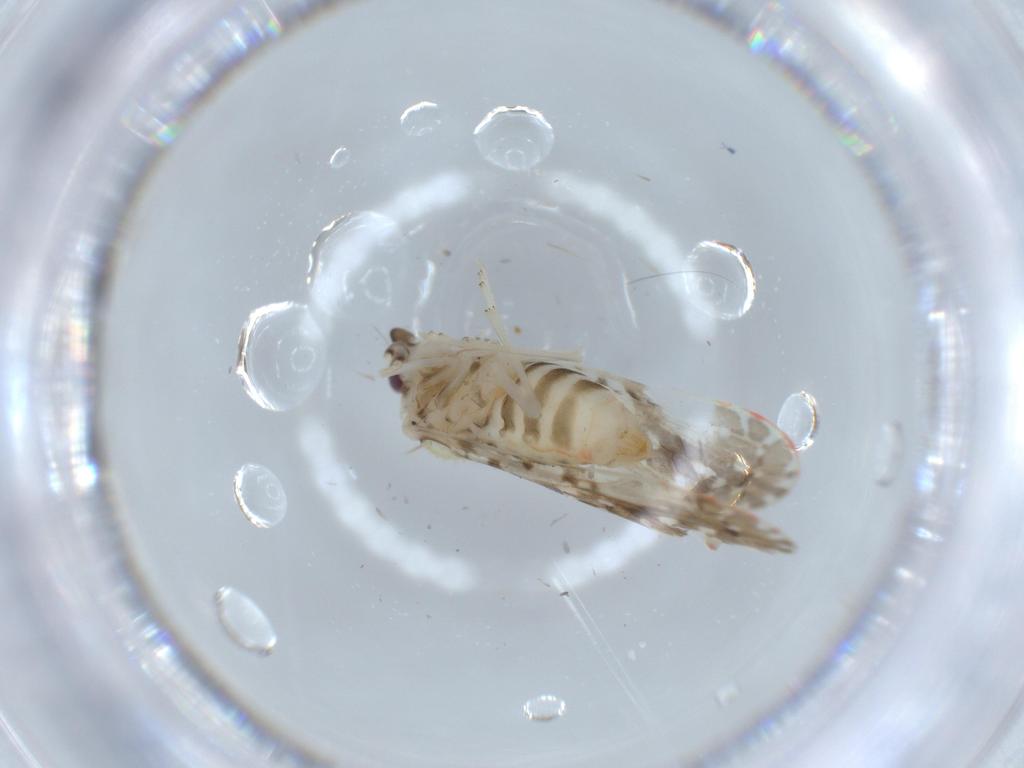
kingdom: Animalia
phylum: Arthropoda
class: Insecta
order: Hemiptera
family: Derbidae
